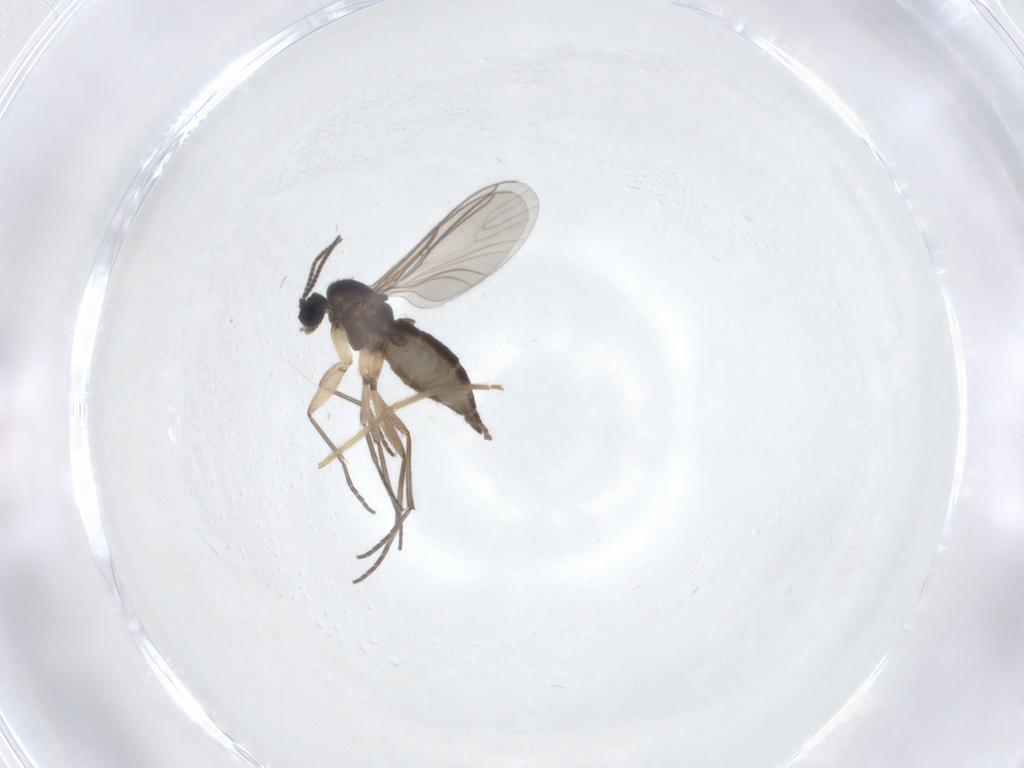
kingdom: Animalia
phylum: Arthropoda
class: Insecta
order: Diptera
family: Sciaridae
